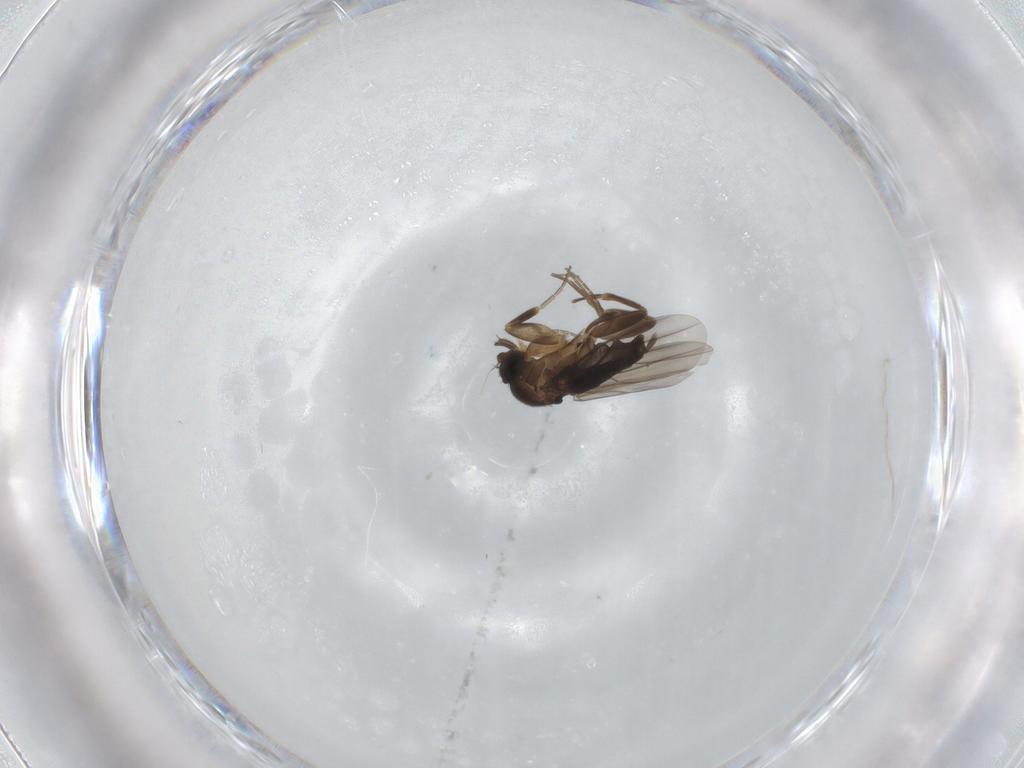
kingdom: Animalia
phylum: Arthropoda
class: Insecta
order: Diptera
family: Phoridae
